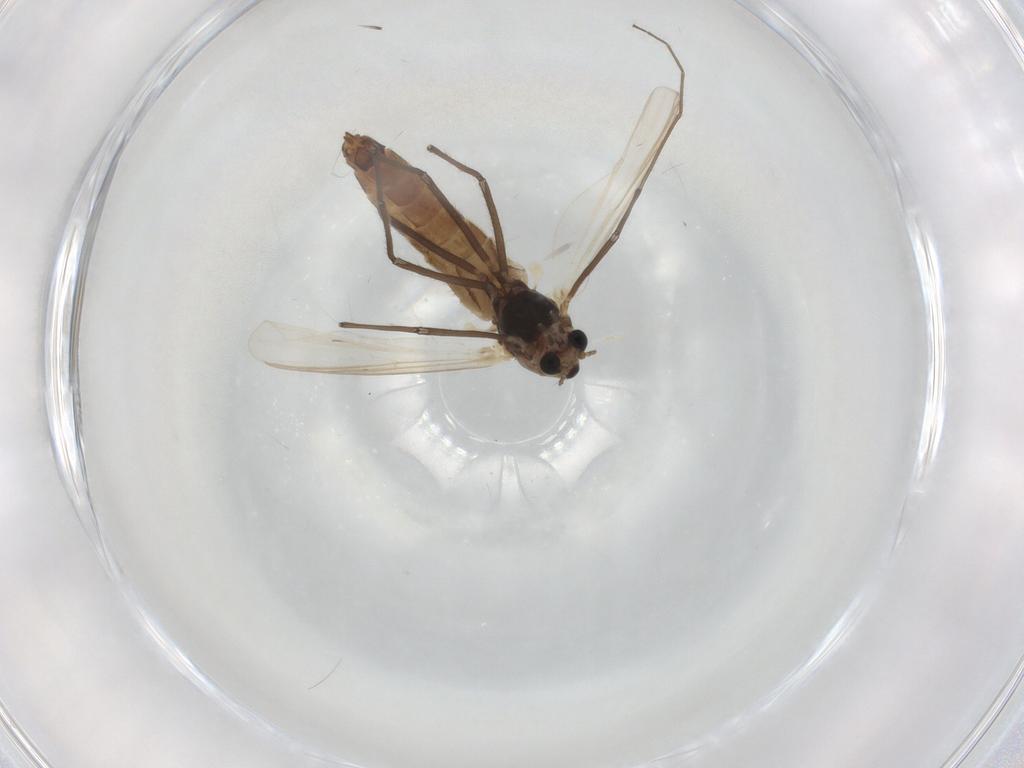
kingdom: Animalia
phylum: Arthropoda
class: Insecta
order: Diptera
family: Chironomidae
